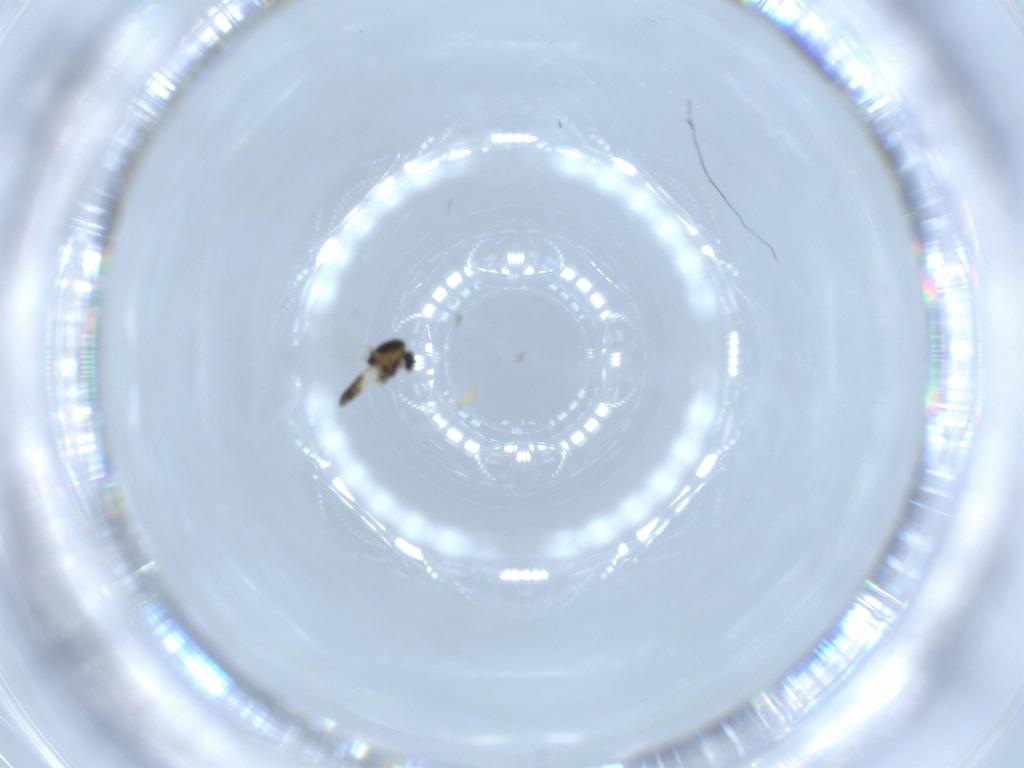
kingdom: Animalia
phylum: Arthropoda
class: Insecta
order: Diptera
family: Chironomidae
